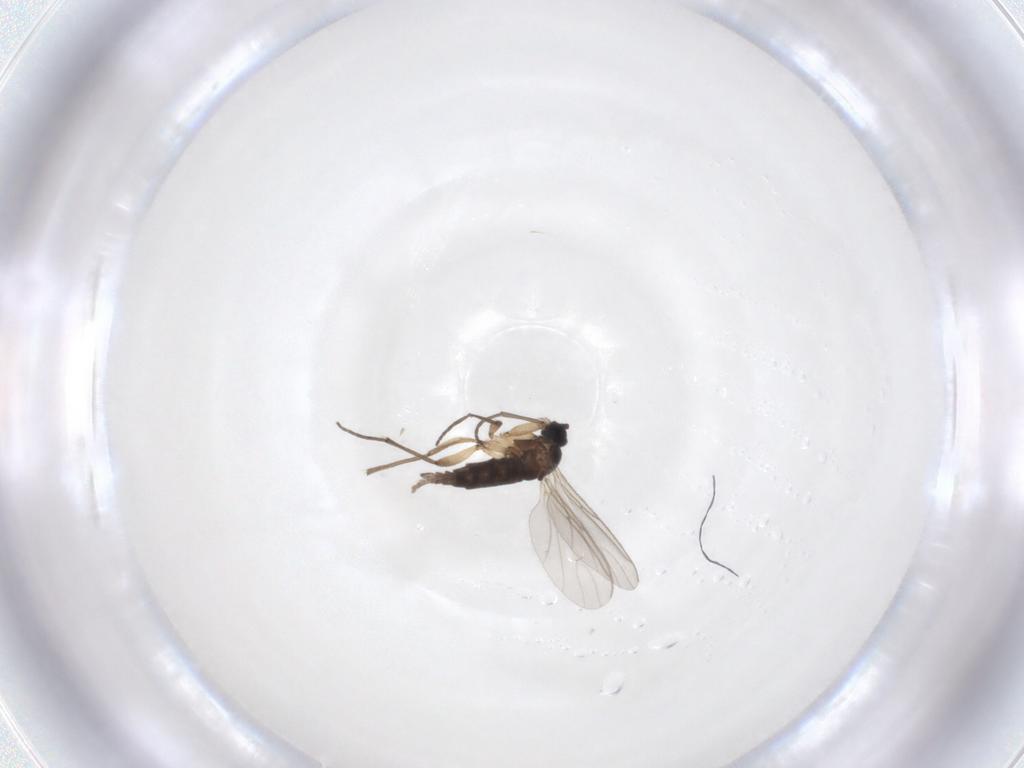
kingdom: Animalia
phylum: Arthropoda
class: Insecta
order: Diptera
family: Sciaridae
